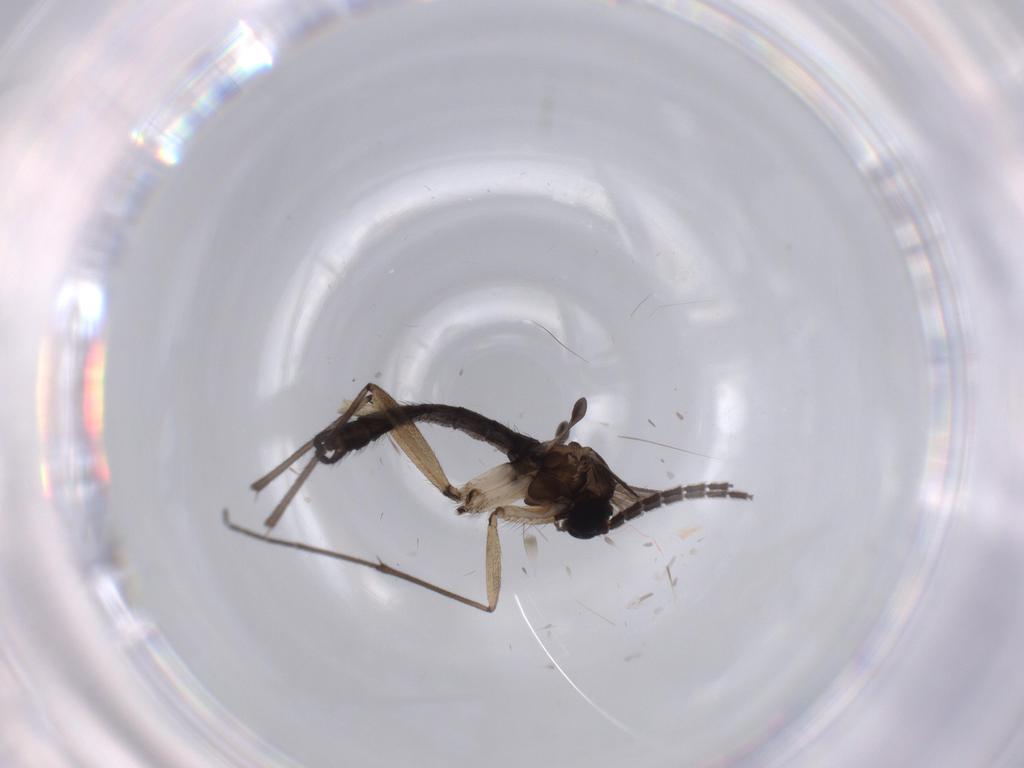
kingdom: Animalia
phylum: Arthropoda
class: Insecta
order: Diptera
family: Sciaridae
